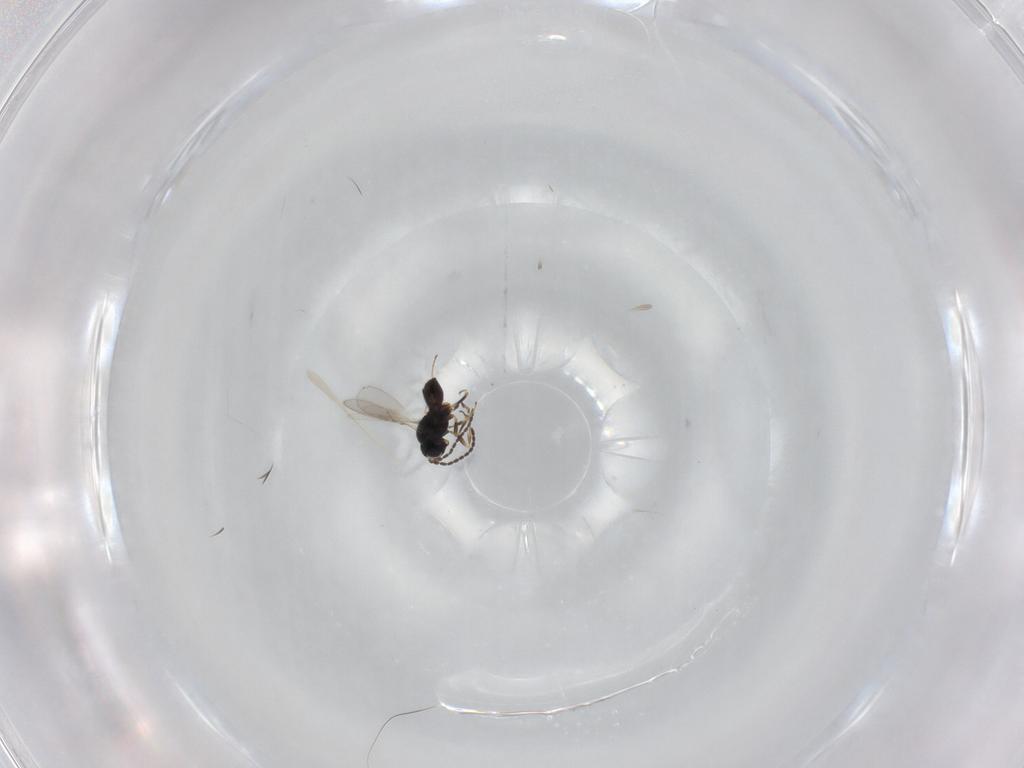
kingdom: Animalia
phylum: Arthropoda
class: Insecta
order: Hymenoptera
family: Scelionidae
